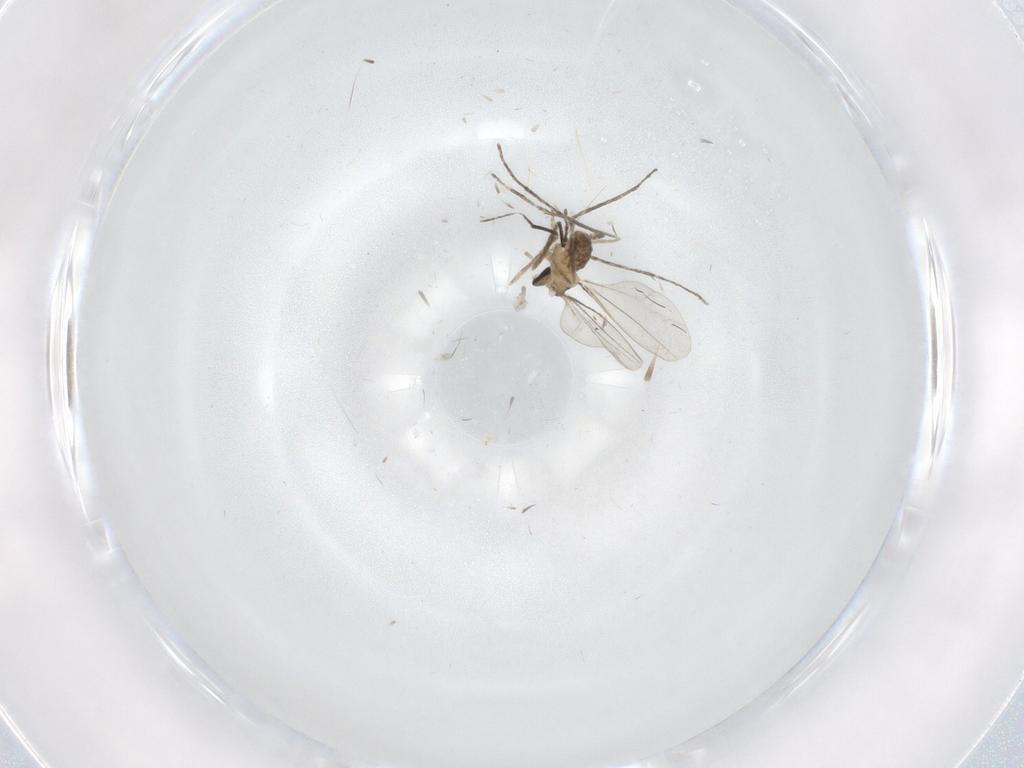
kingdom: Animalia
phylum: Arthropoda
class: Insecta
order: Diptera
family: Cecidomyiidae
